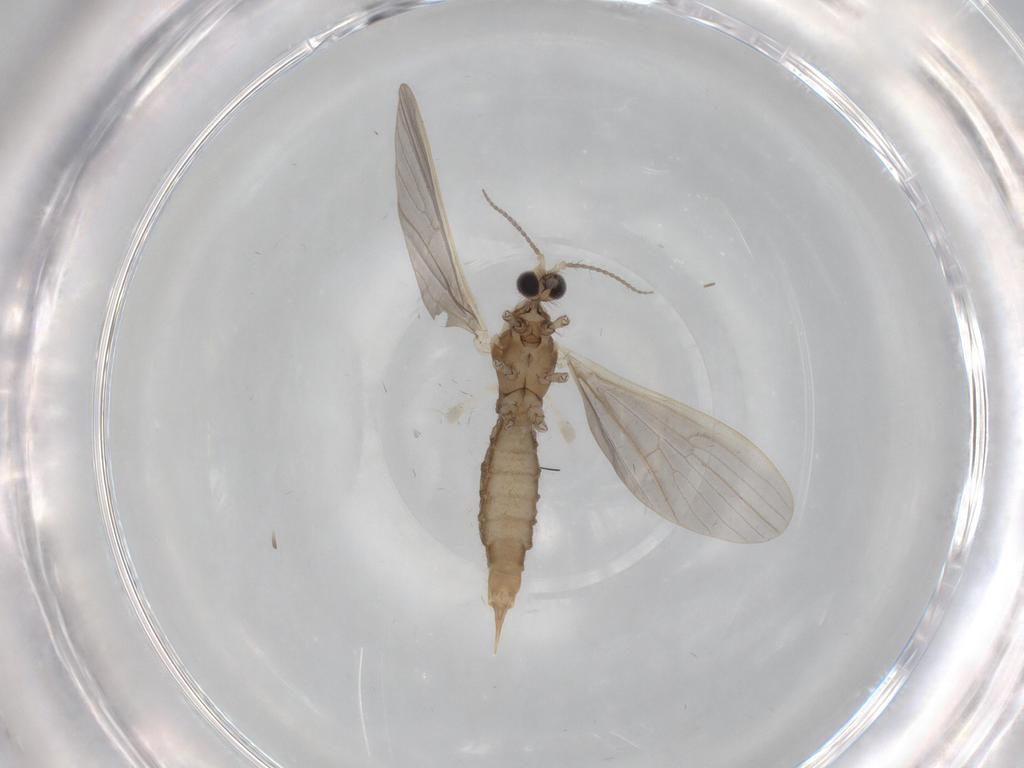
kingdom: Animalia
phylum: Arthropoda
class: Insecta
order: Diptera
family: Limoniidae
